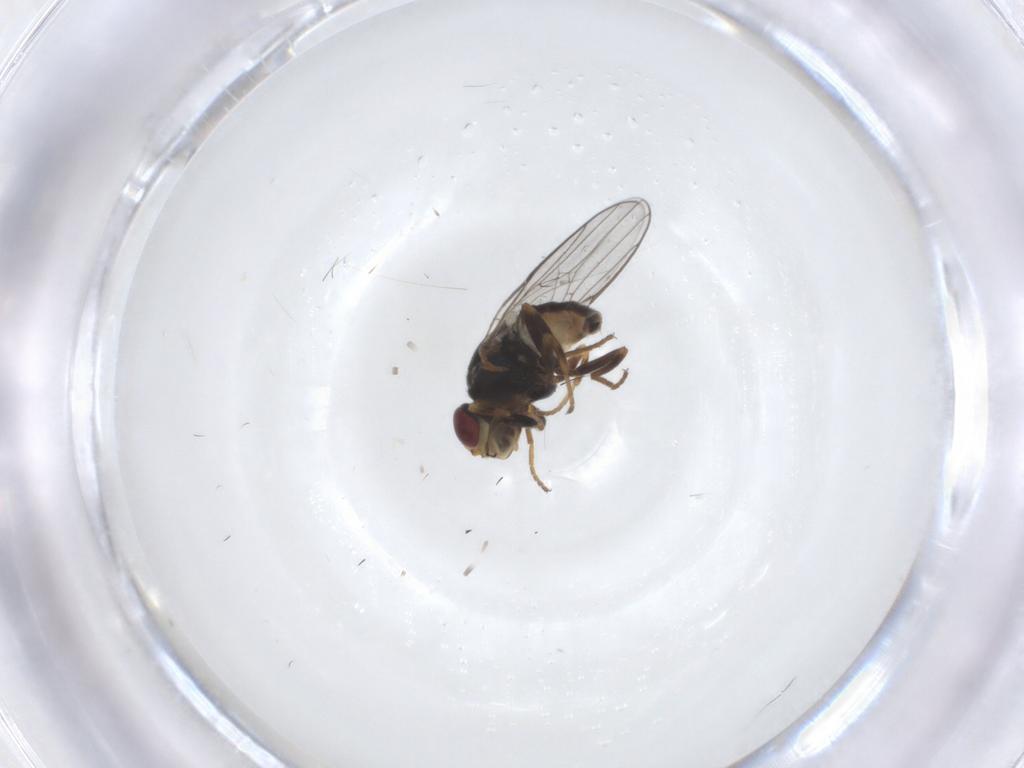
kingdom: Animalia
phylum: Arthropoda
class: Insecta
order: Diptera
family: Chloropidae
